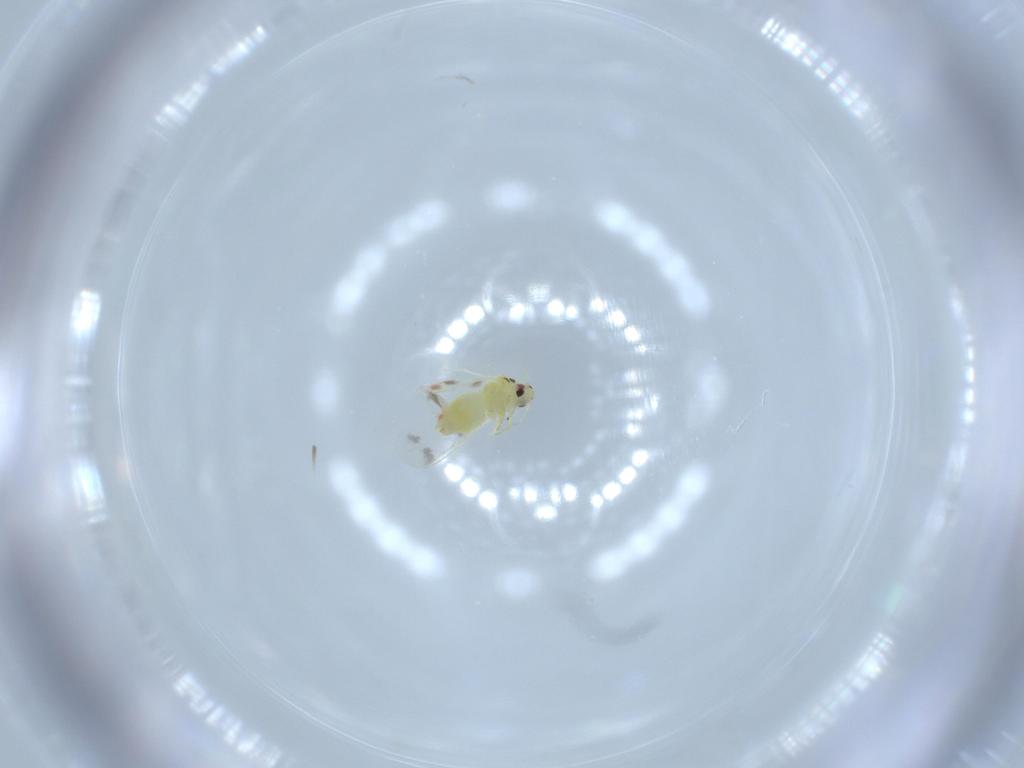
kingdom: Animalia
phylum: Arthropoda
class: Insecta
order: Hemiptera
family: Aleyrodidae
